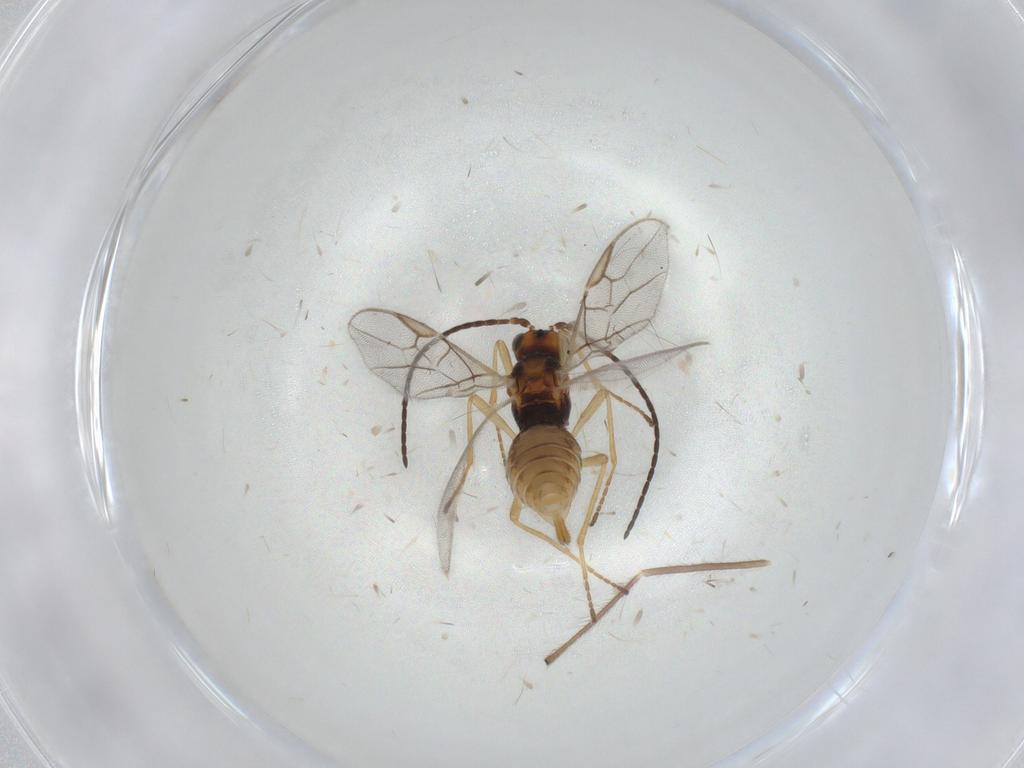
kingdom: Animalia
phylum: Arthropoda
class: Insecta
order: Hymenoptera
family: Braconidae
